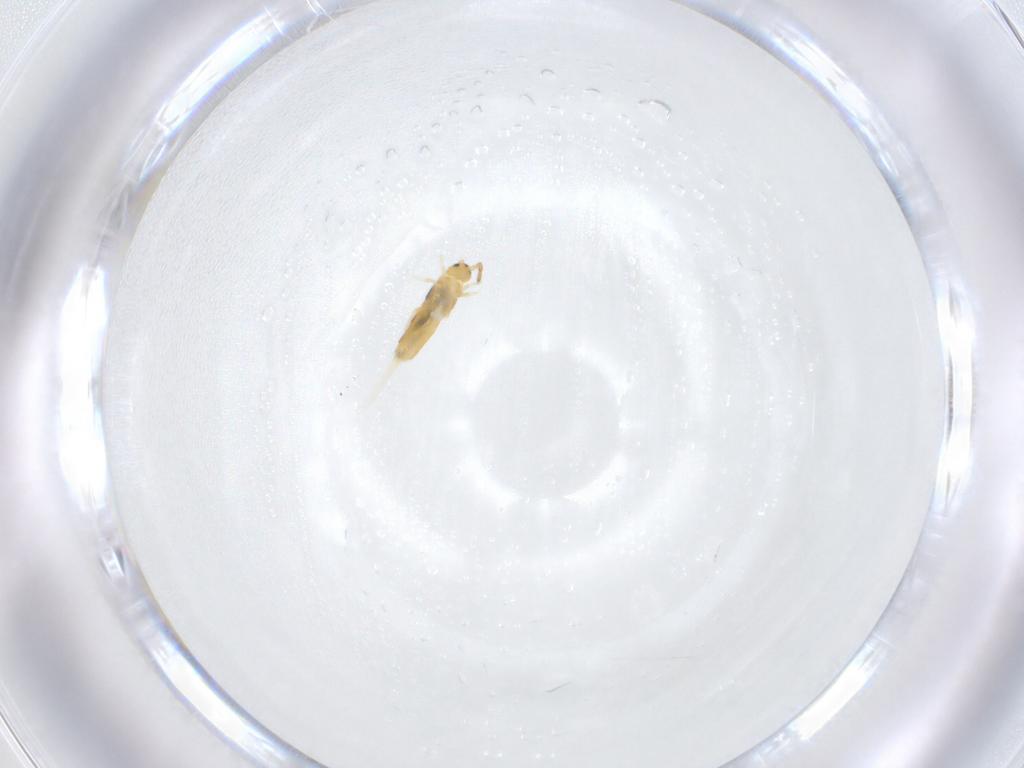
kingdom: Animalia
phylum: Arthropoda
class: Collembola
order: Entomobryomorpha
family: Entomobryidae
